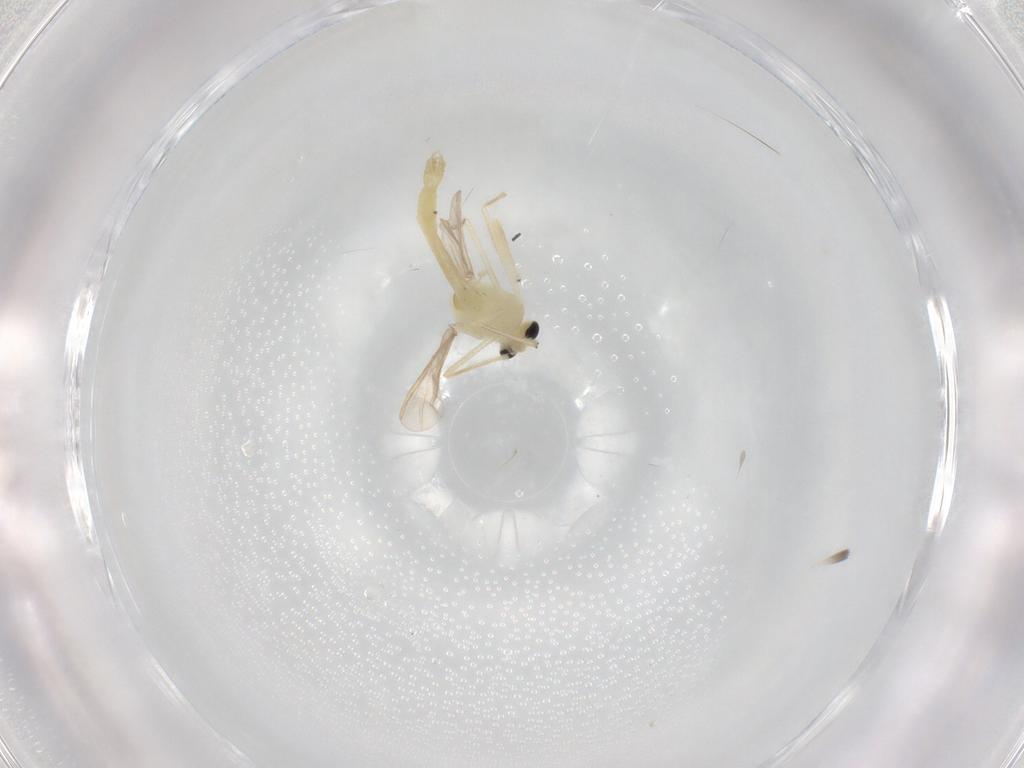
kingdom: Animalia
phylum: Arthropoda
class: Insecta
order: Diptera
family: Chironomidae
